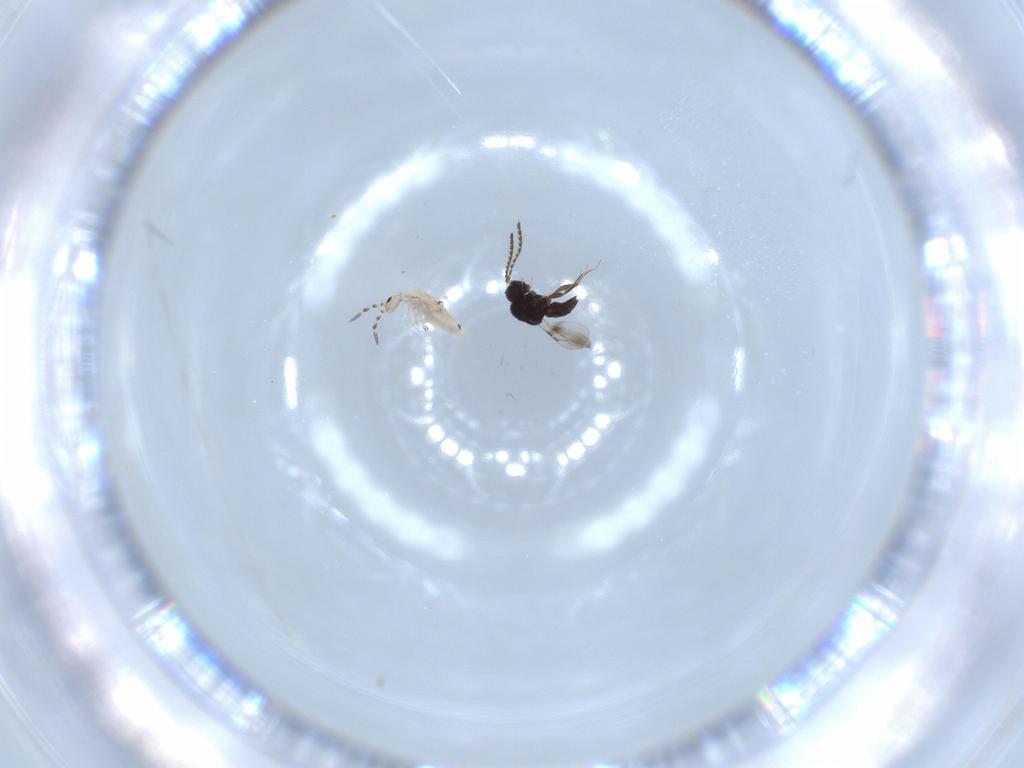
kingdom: Animalia
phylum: Arthropoda
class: Collembola
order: Entomobryomorpha
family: Entomobryidae
